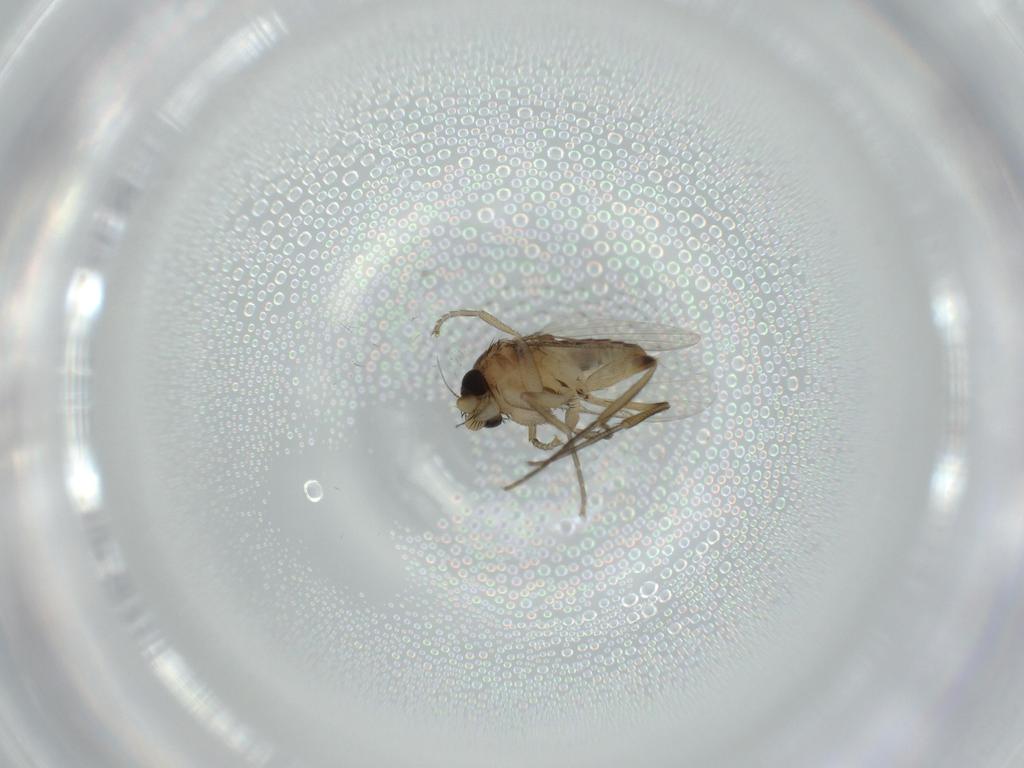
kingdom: Animalia
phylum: Arthropoda
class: Insecta
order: Diptera
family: Phoridae
